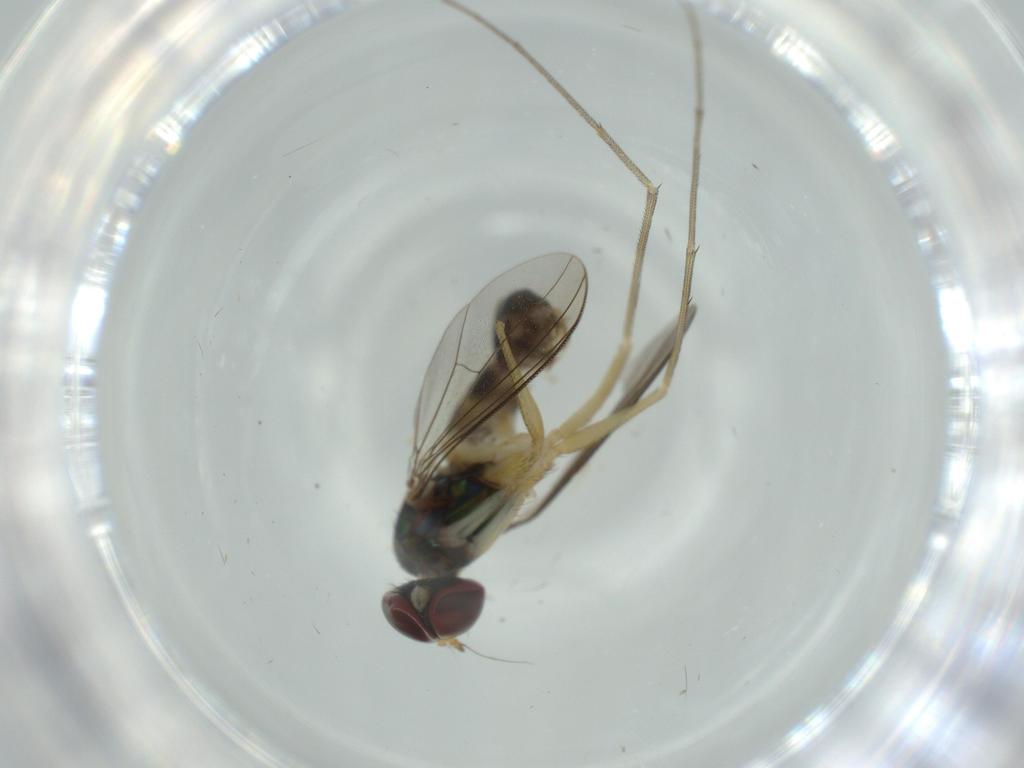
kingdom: Animalia
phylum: Arthropoda
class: Insecta
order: Diptera
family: Dolichopodidae
